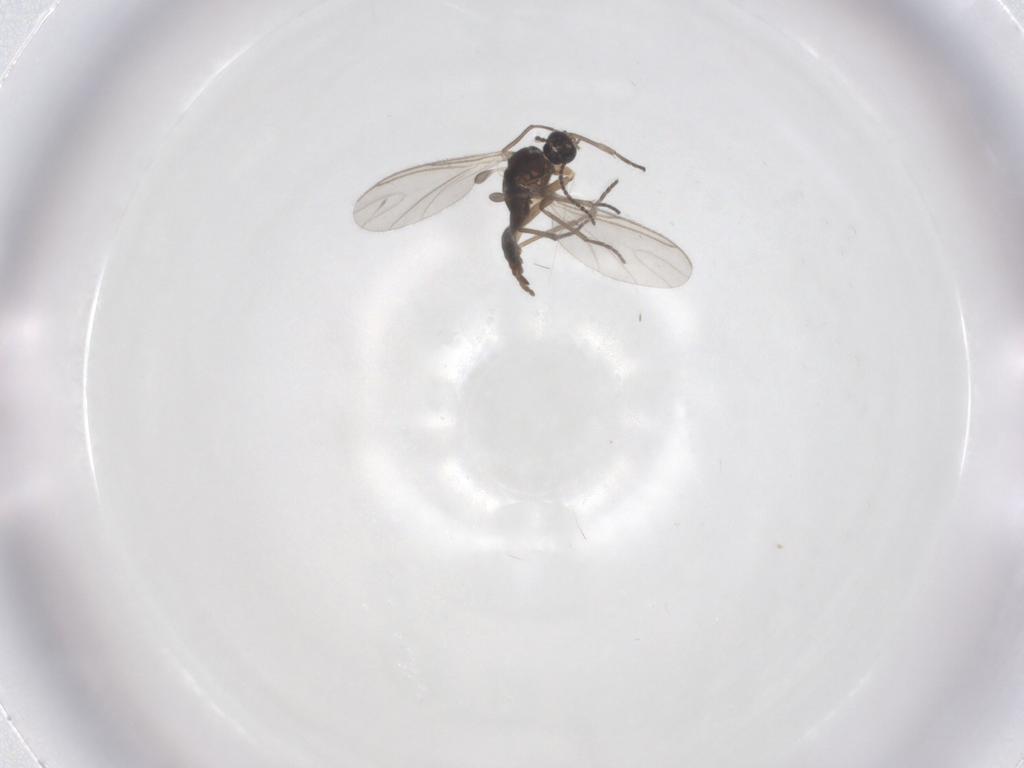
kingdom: Animalia
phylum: Arthropoda
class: Insecta
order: Diptera
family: Sciaridae
